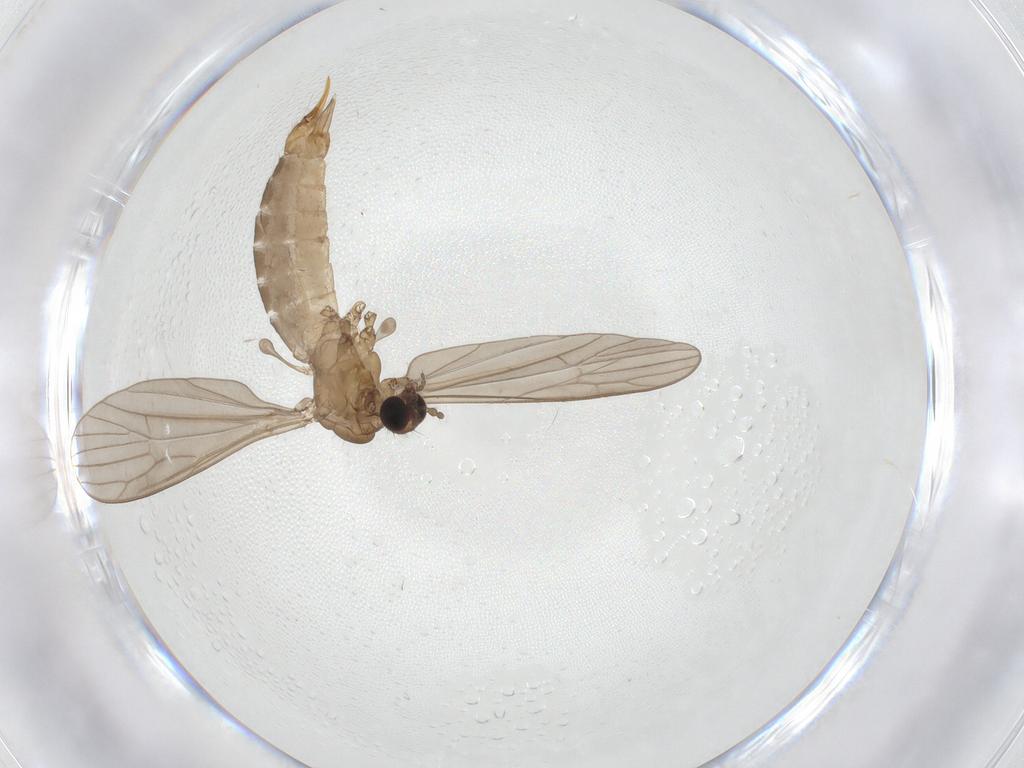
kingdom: Animalia
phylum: Arthropoda
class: Insecta
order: Diptera
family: Limoniidae
